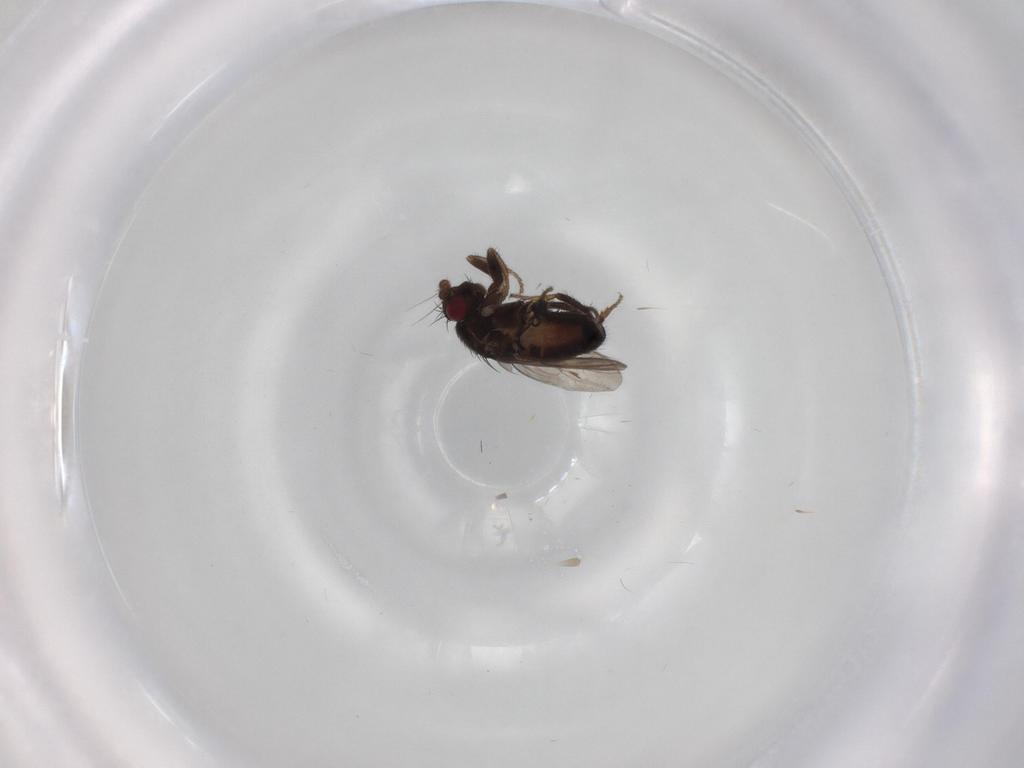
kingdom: Animalia
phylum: Arthropoda
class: Insecta
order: Diptera
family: Sphaeroceridae
